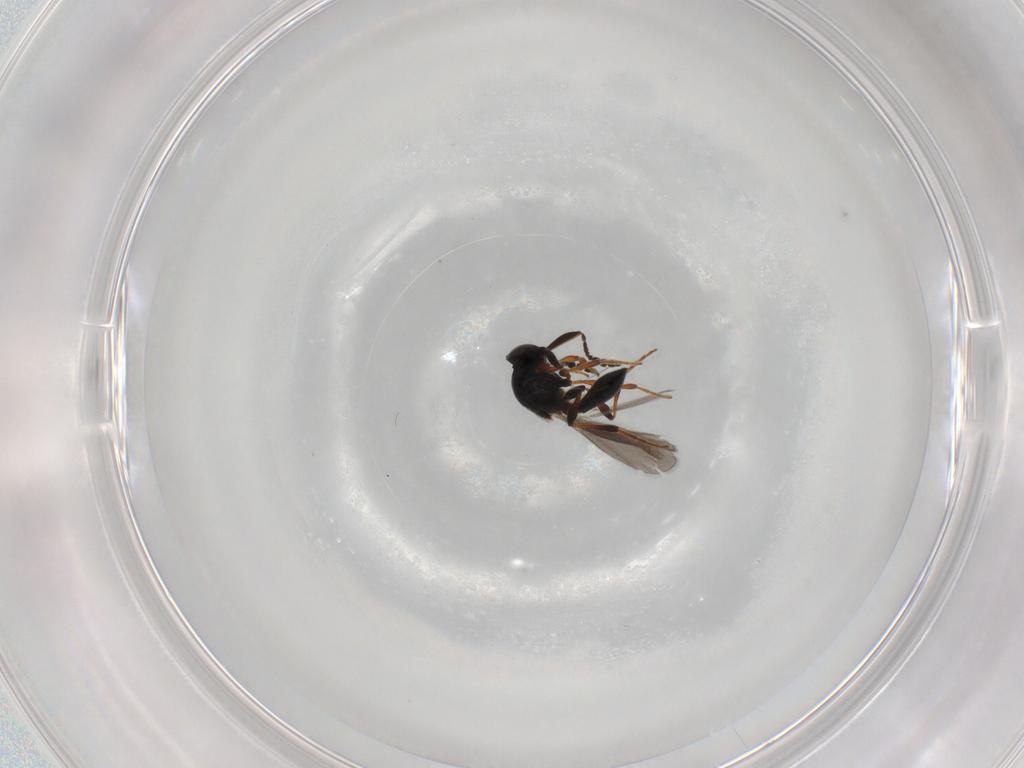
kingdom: Animalia
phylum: Arthropoda
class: Insecta
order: Hymenoptera
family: Platygastridae
